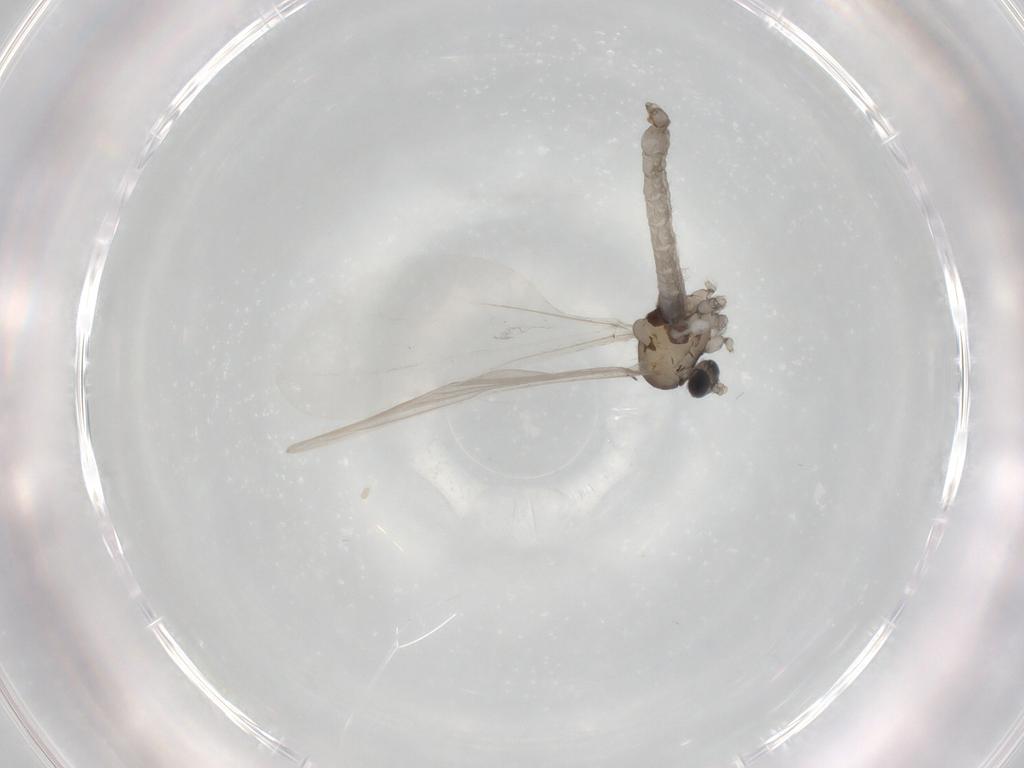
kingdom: Animalia
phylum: Arthropoda
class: Insecta
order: Diptera
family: Cecidomyiidae
